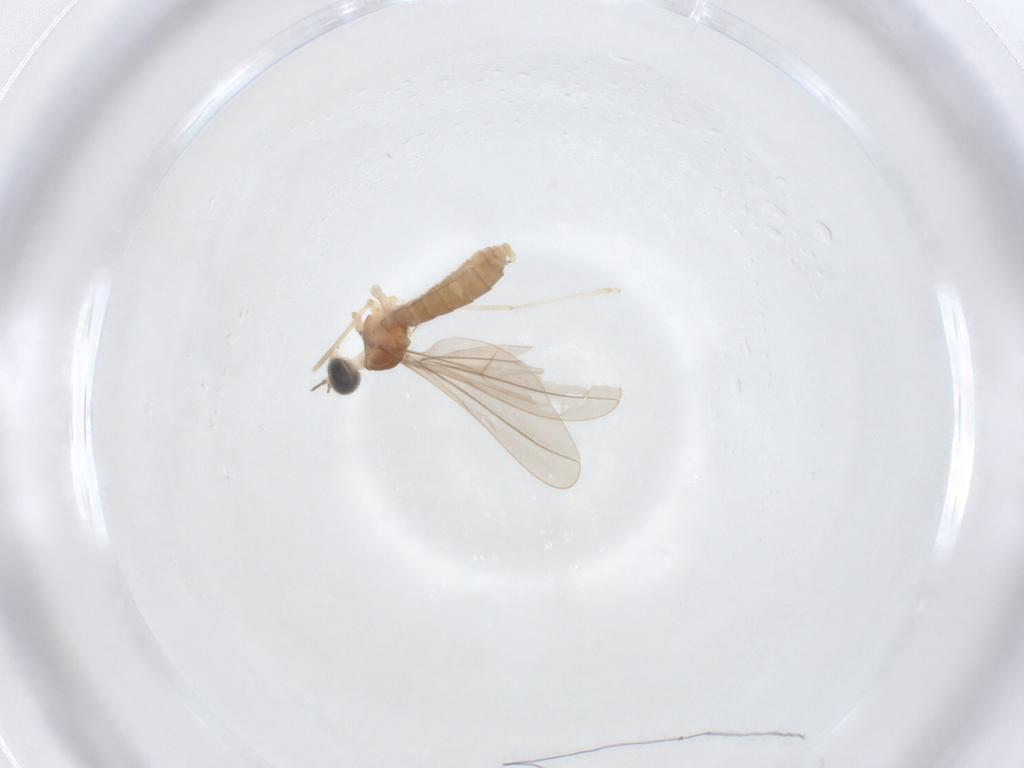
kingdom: Animalia
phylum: Arthropoda
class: Insecta
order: Diptera
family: Cecidomyiidae
